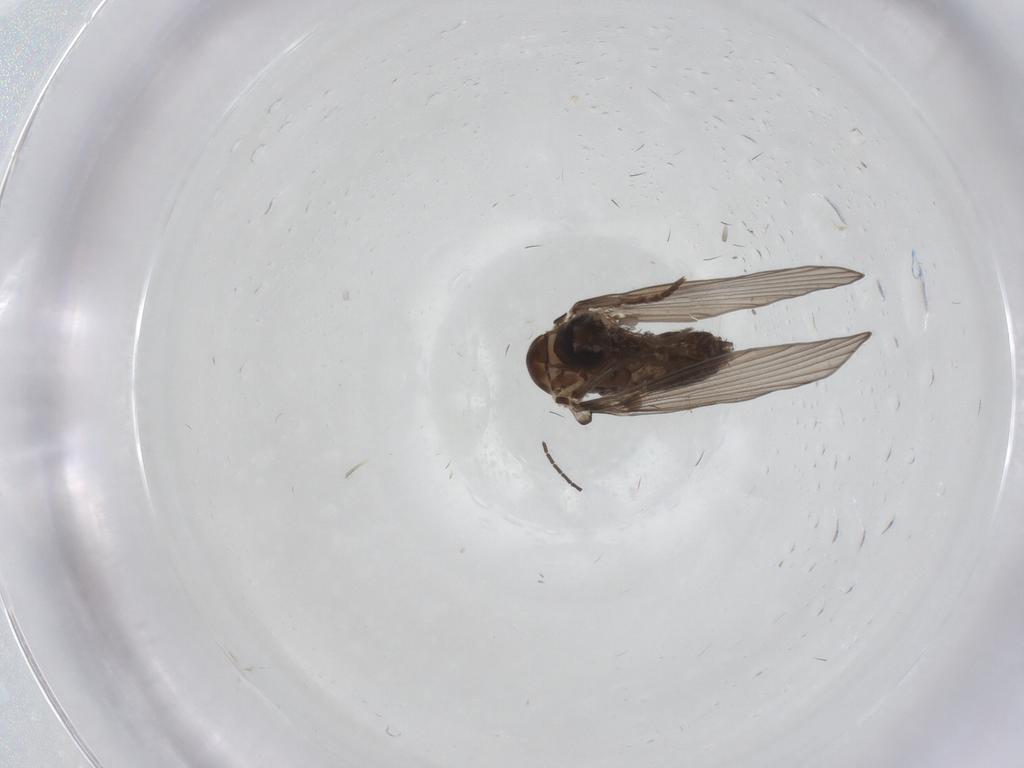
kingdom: Animalia
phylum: Arthropoda
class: Insecta
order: Diptera
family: Psychodidae
